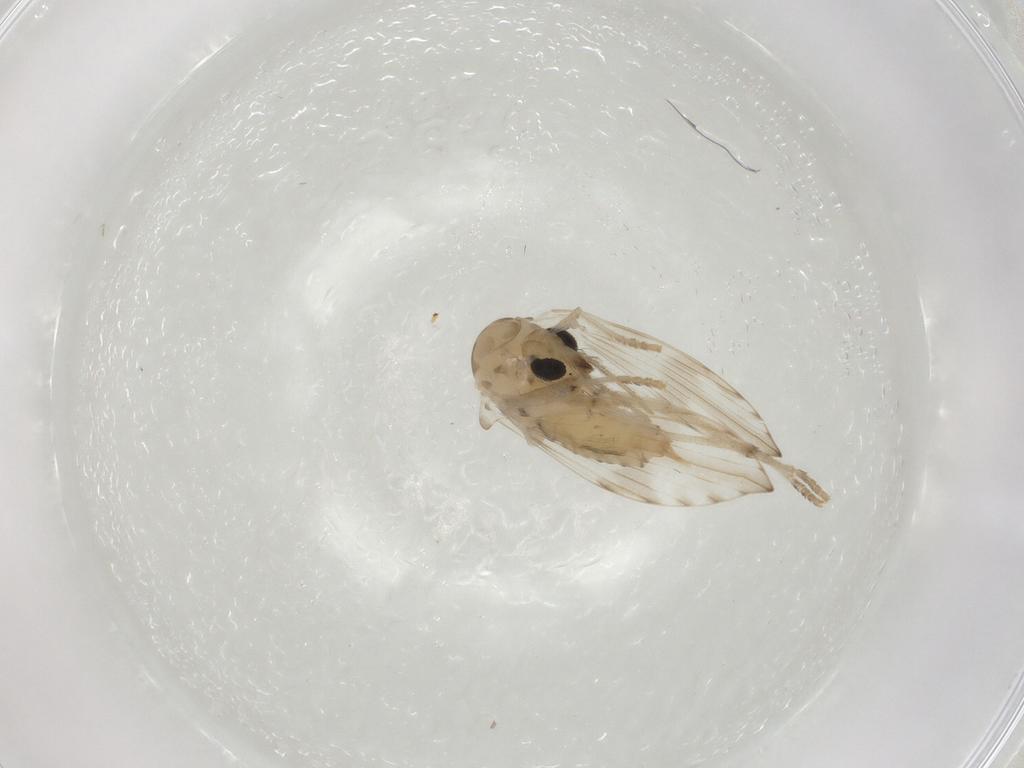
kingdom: Animalia
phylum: Arthropoda
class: Insecta
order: Diptera
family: Psychodidae
